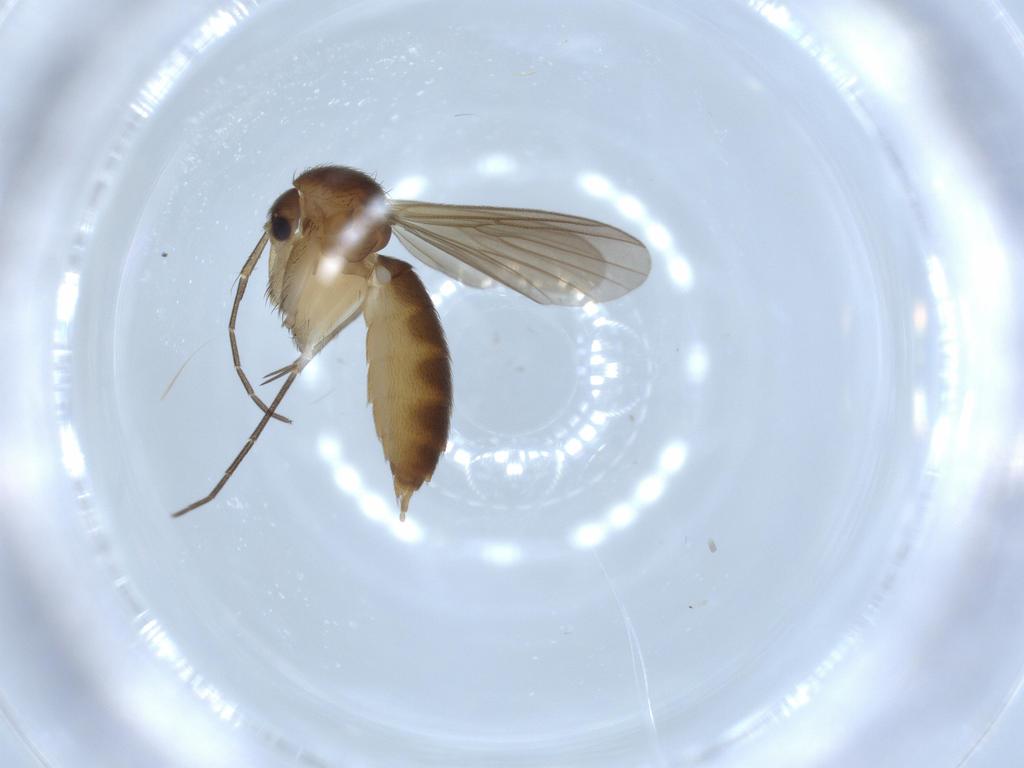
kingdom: Animalia
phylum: Arthropoda
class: Insecta
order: Diptera
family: Mycetophilidae
